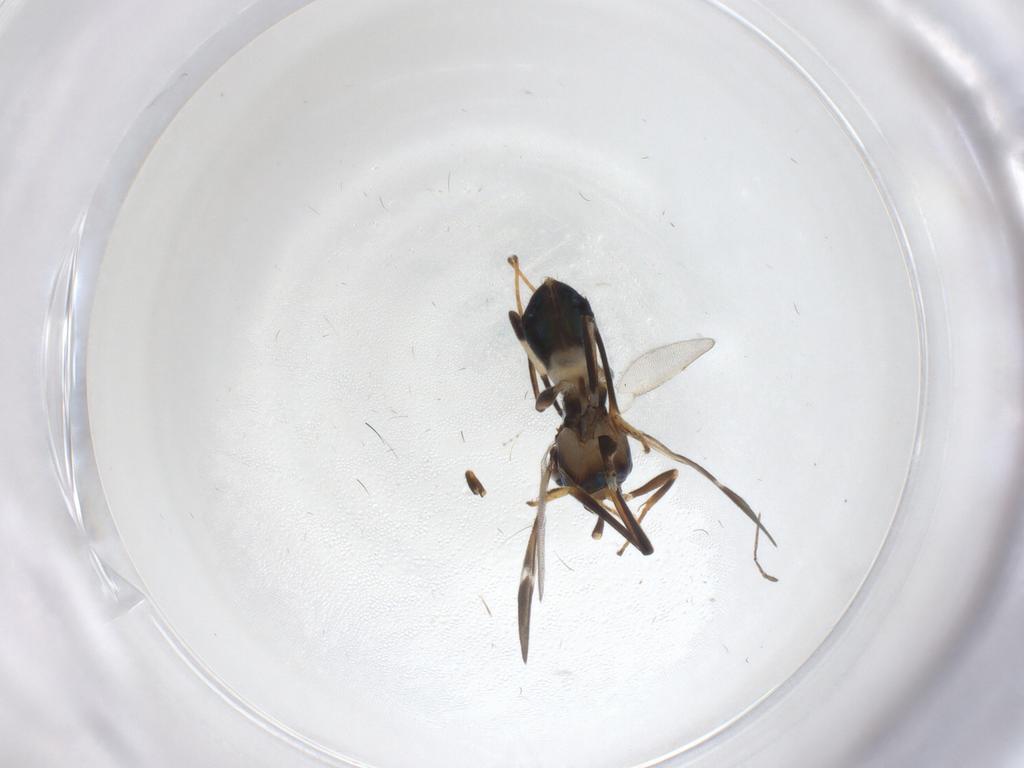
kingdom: Animalia
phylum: Arthropoda
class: Insecta
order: Diptera
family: Cecidomyiidae
